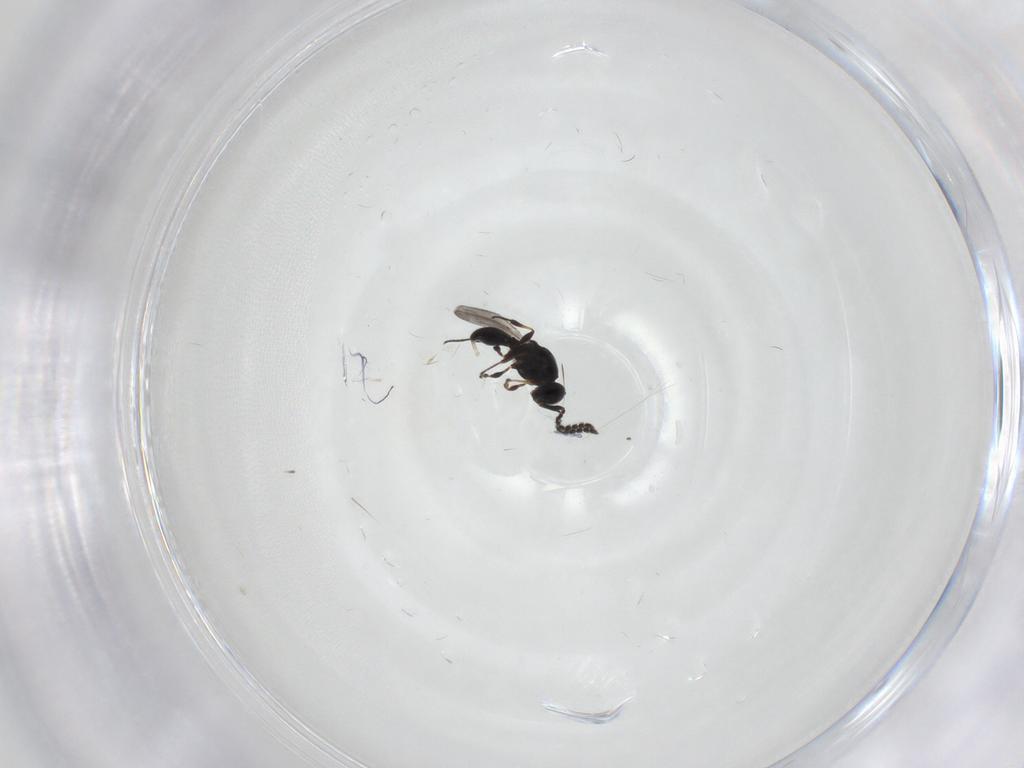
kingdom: Animalia
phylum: Arthropoda
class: Insecta
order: Hymenoptera
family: Platygastridae
